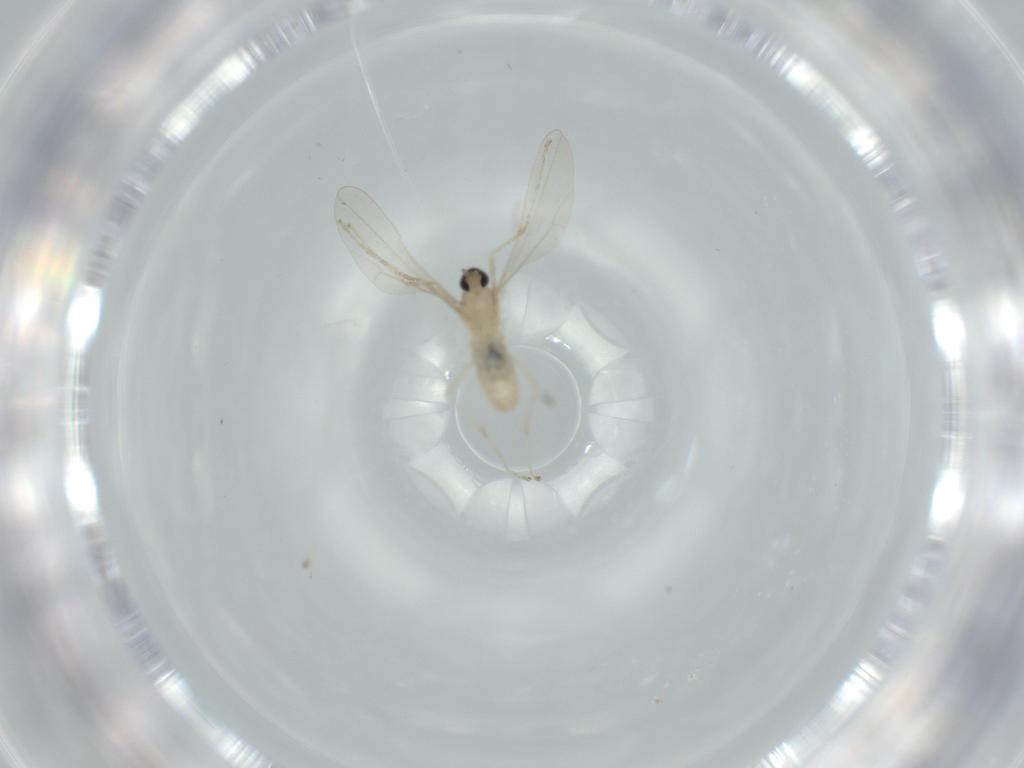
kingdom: Animalia
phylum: Arthropoda
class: Insecta
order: Diptera
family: Cecidomyiidae
